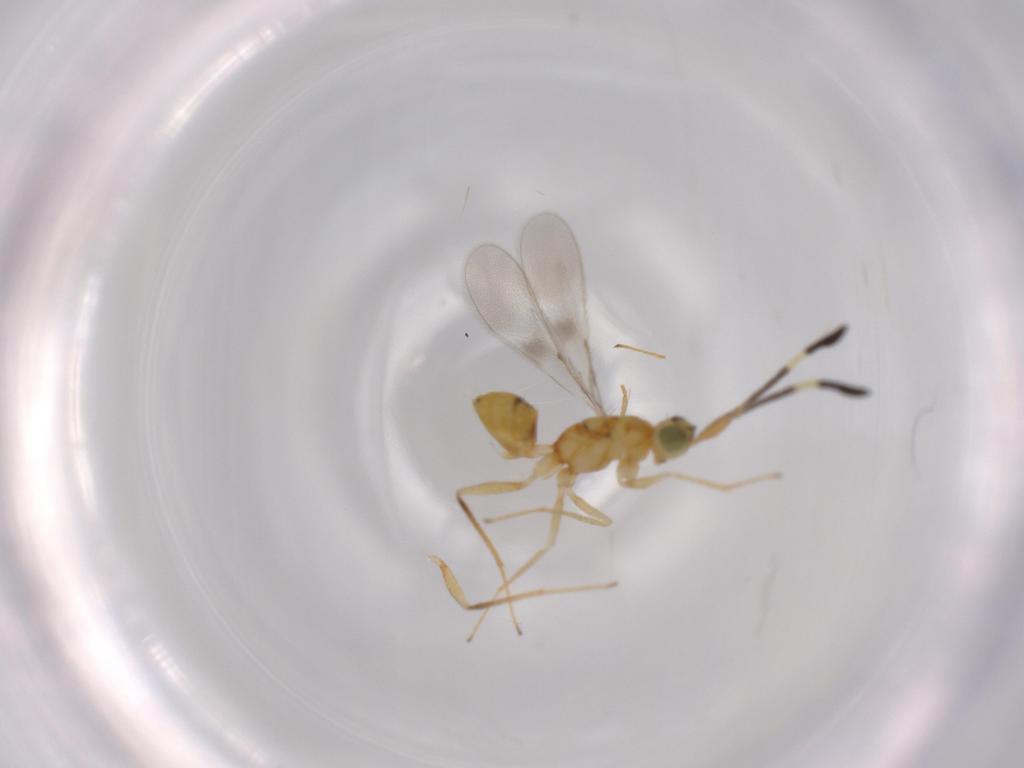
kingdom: Animalia
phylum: Arthropoda
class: Insecta
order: Hymenoptera
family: Mymaridae
